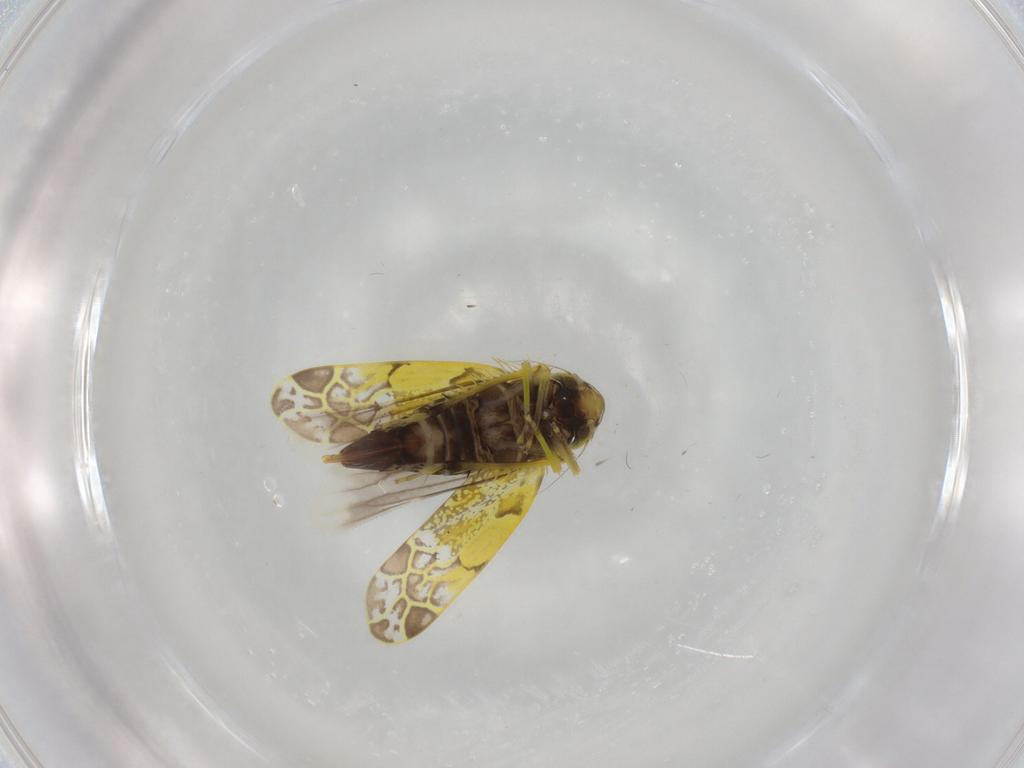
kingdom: Animalia
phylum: Arthropoda
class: Insecta
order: Hemiptera
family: Cicadellidae
